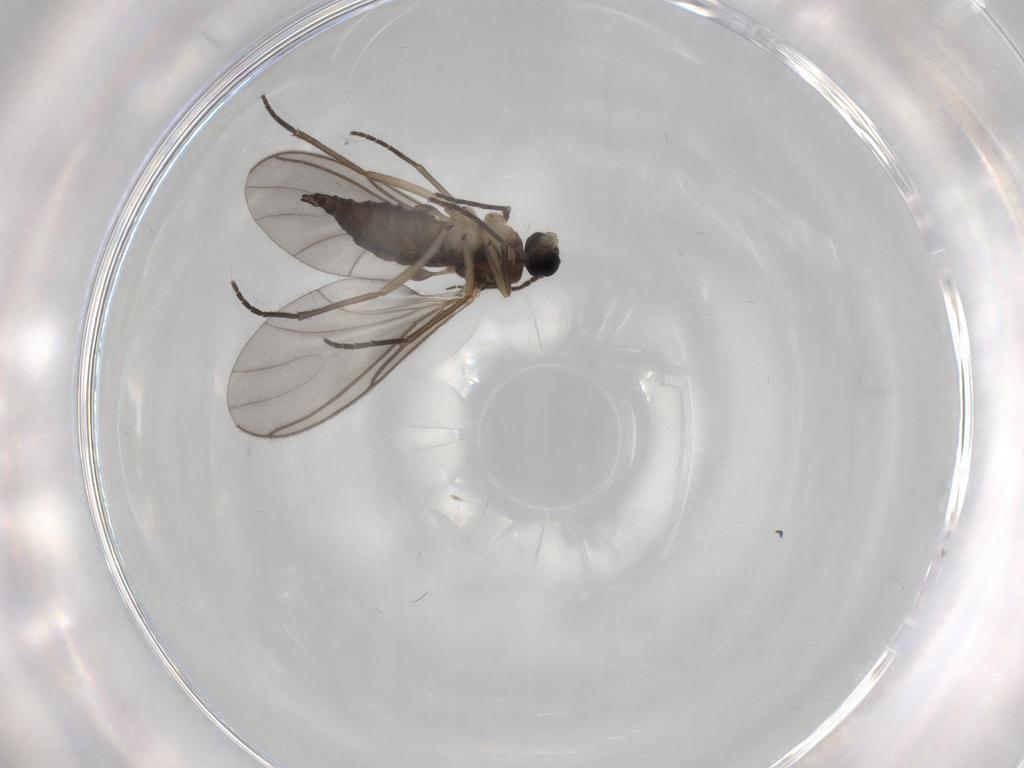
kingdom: Animalia
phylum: Arthropoda
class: Insecta
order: Diptera
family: Sciaridae
